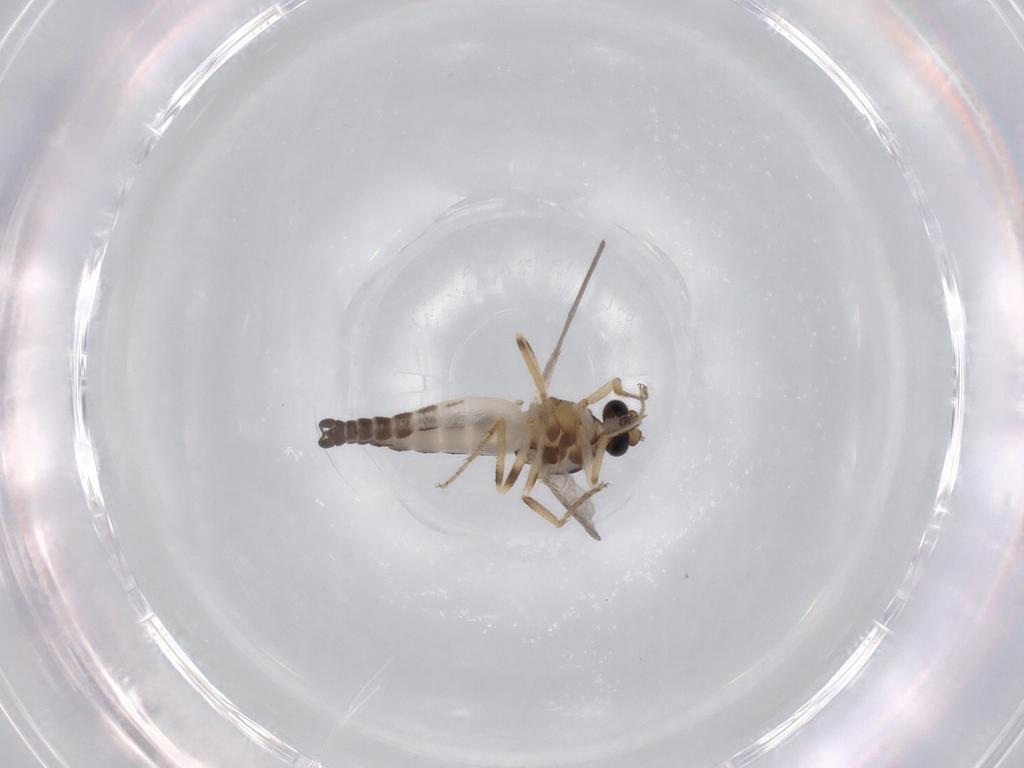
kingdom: Animalia
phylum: Arthropoda
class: Insecta
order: Diptera
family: Ceratopogonidae
